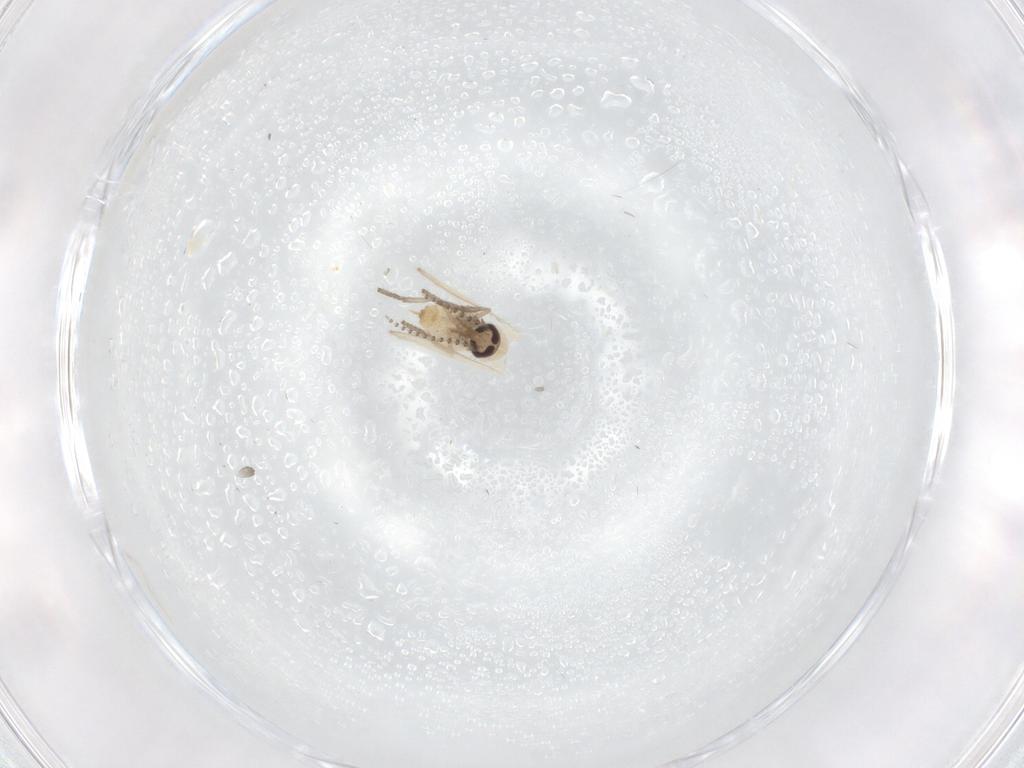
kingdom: Animalia
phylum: Arthropoda
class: Insecta
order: Diptera
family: Psychodidae
